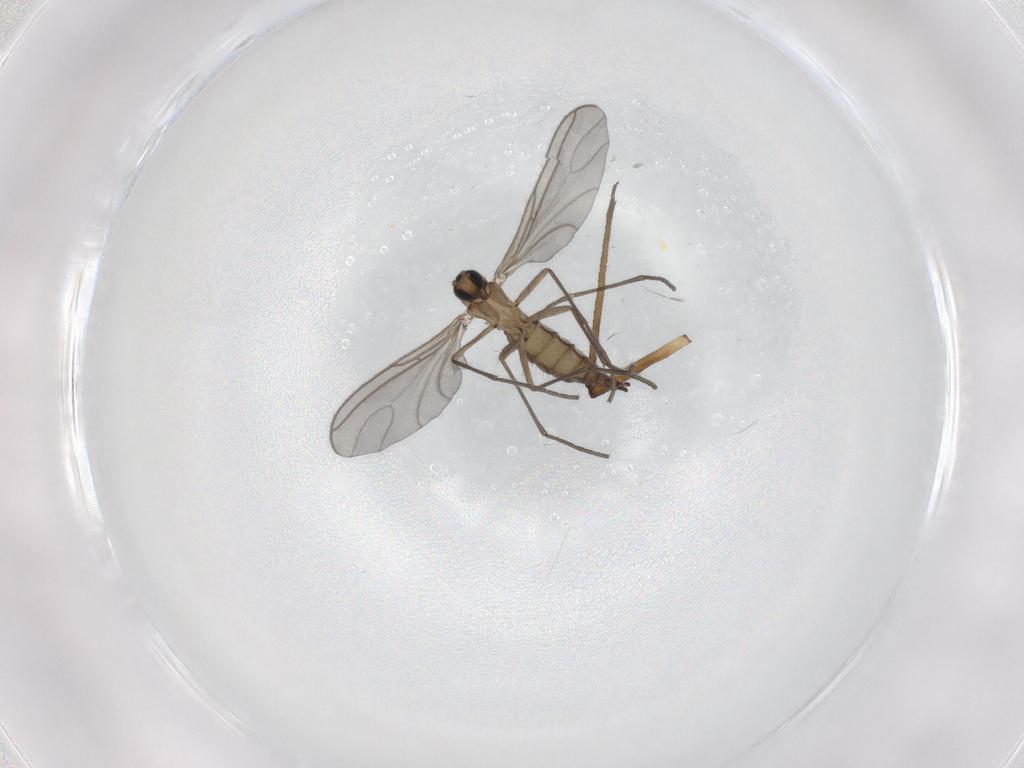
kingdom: Animalia
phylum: Arthropoda
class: Insecta
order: Diptera
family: Sciaridae
